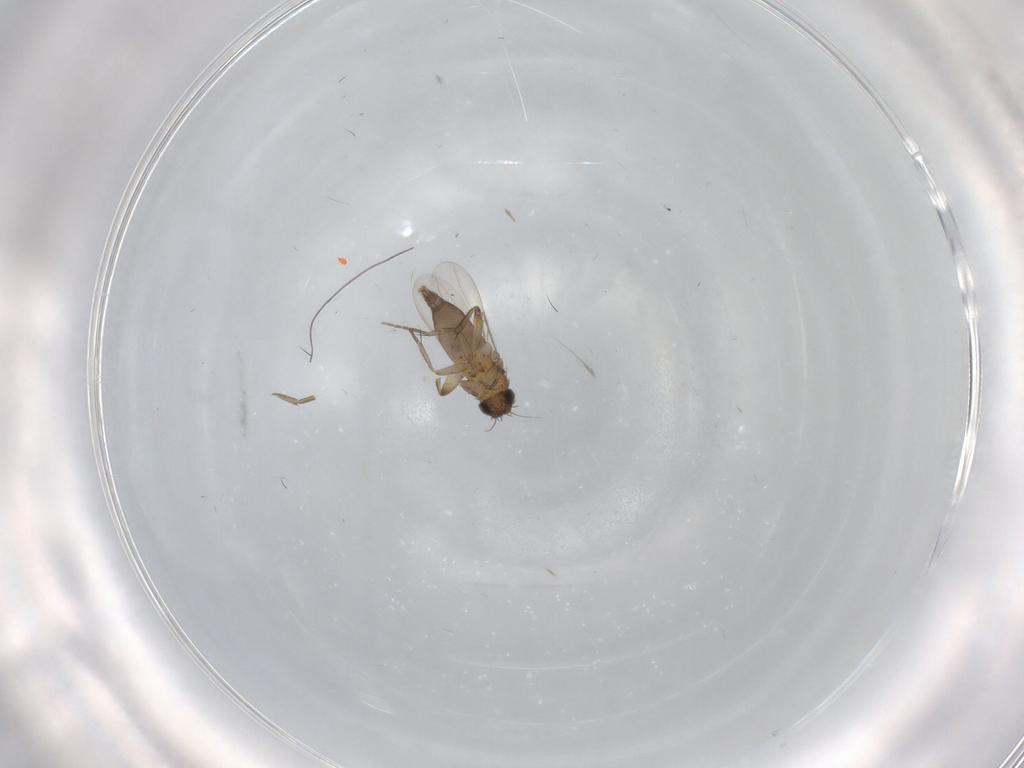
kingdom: Animalia
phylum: Arthropoda
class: Insecta
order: Diptera
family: Phoridae
